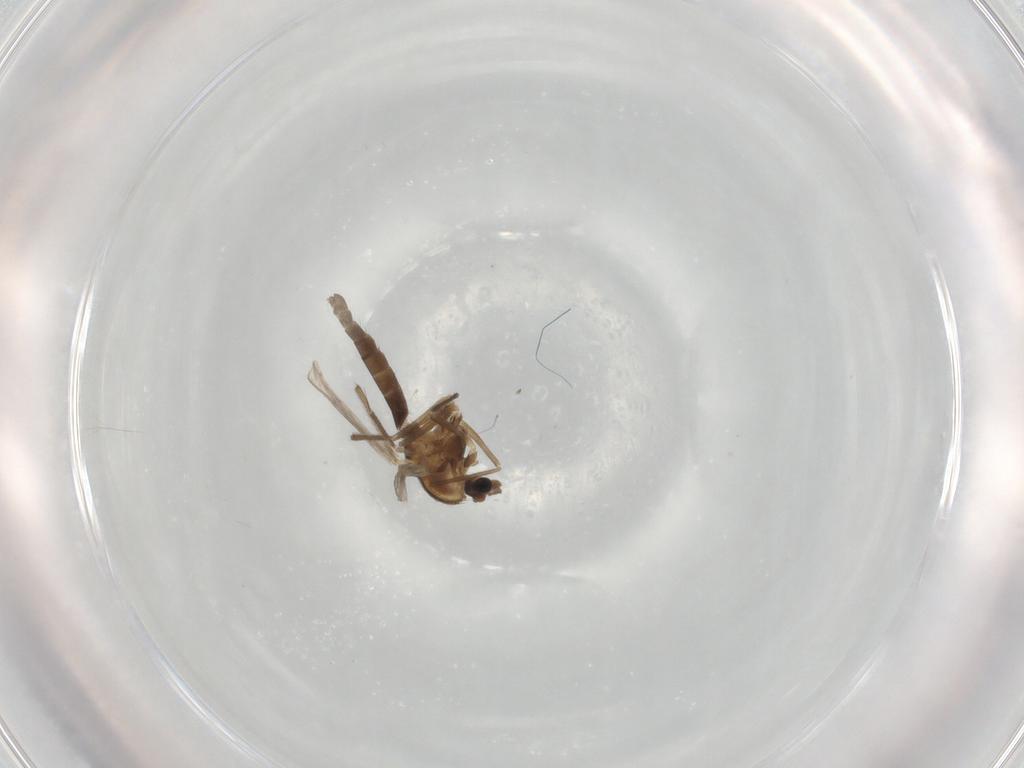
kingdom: Animalia
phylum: Arthropoda
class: Insecta
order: Diptera
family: Chironomidae
